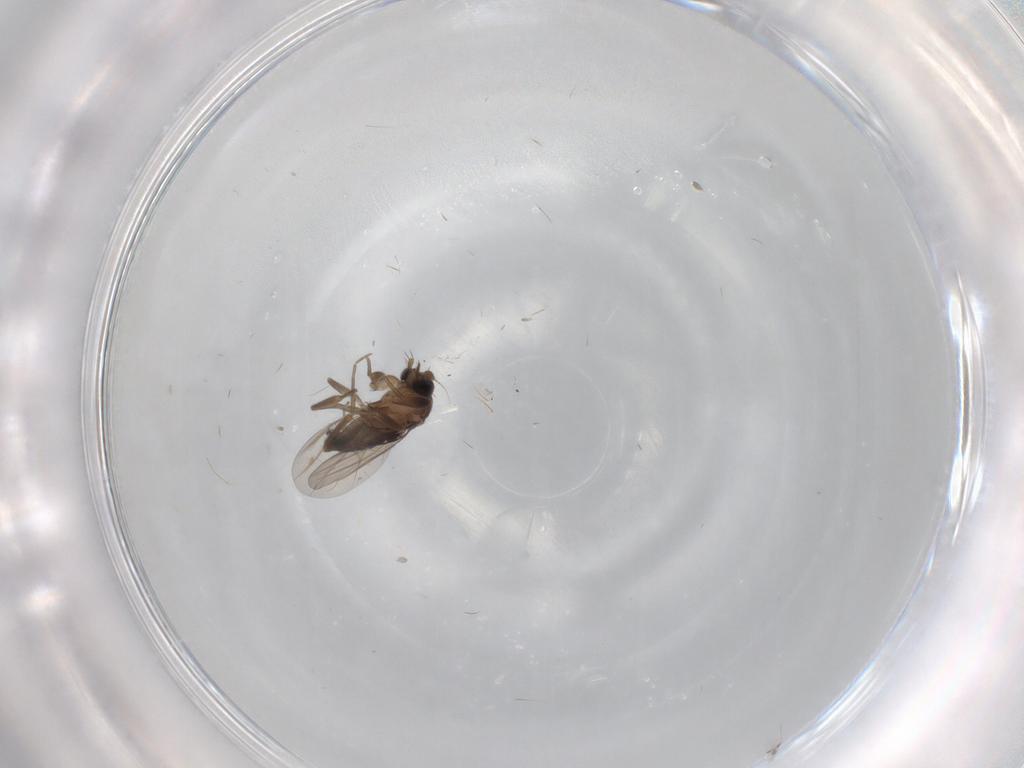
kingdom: Animalia
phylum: Arthropoda
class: Insecta
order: Diptera
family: Phoridae
